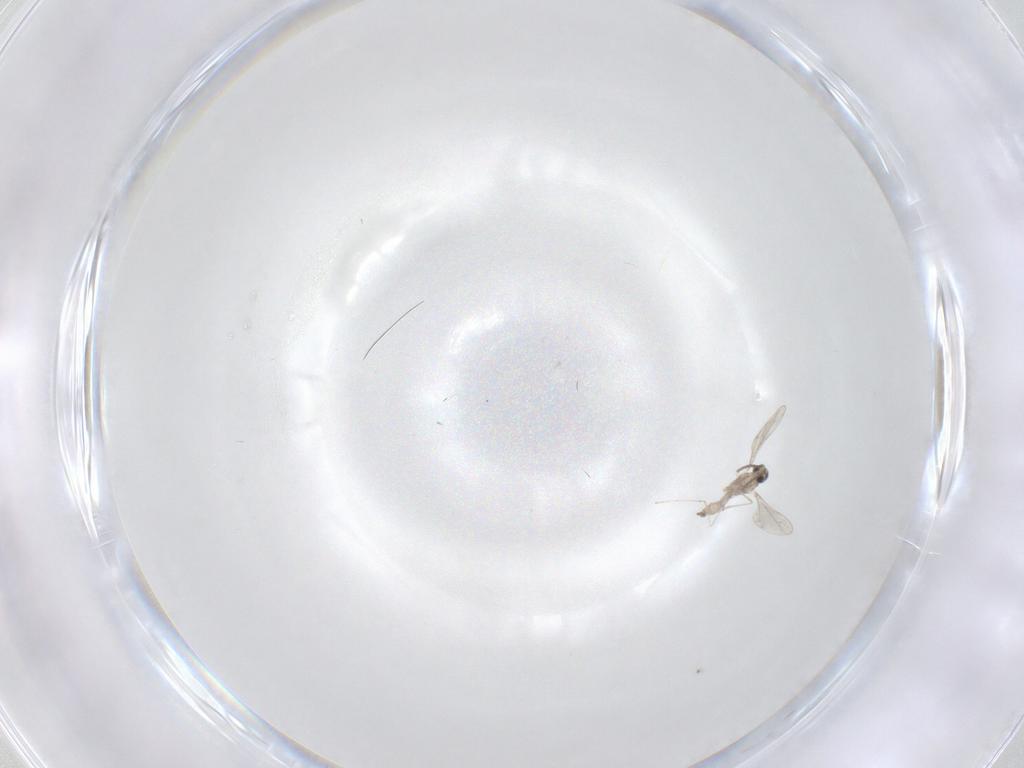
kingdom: Animalia
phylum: Arthropoda
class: Insecta
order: Diptera
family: Cecidomyiidae
